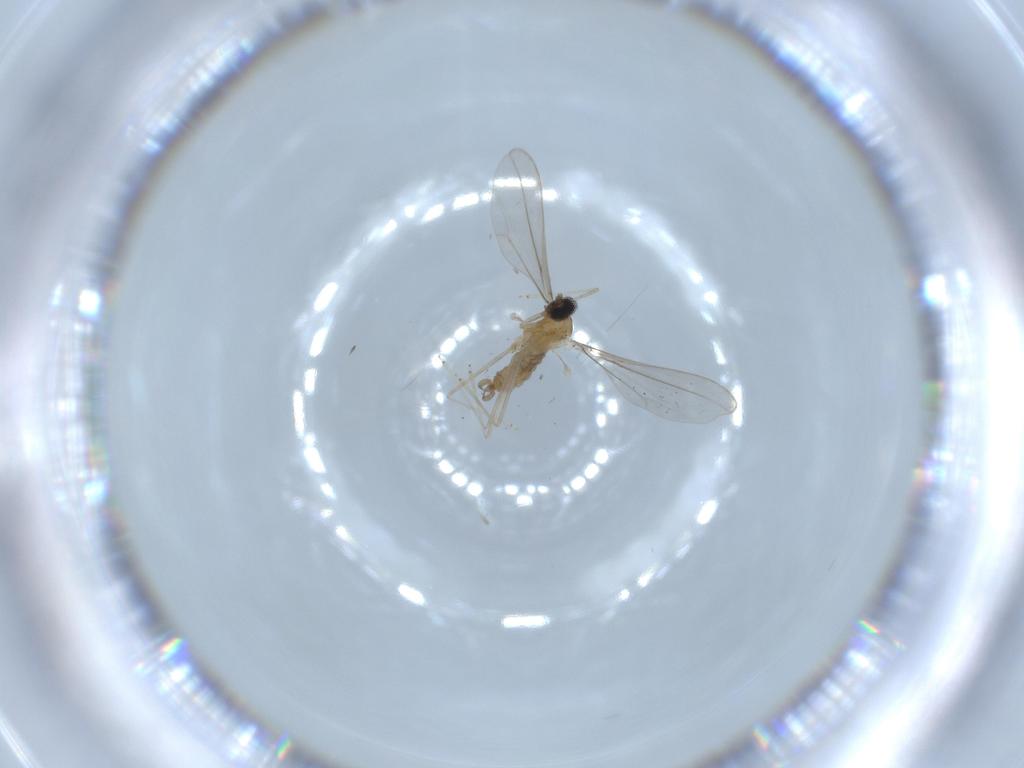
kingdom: Animalia
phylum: Arthropoda
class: Insecta
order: Diptera
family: Cecidomyiidae
